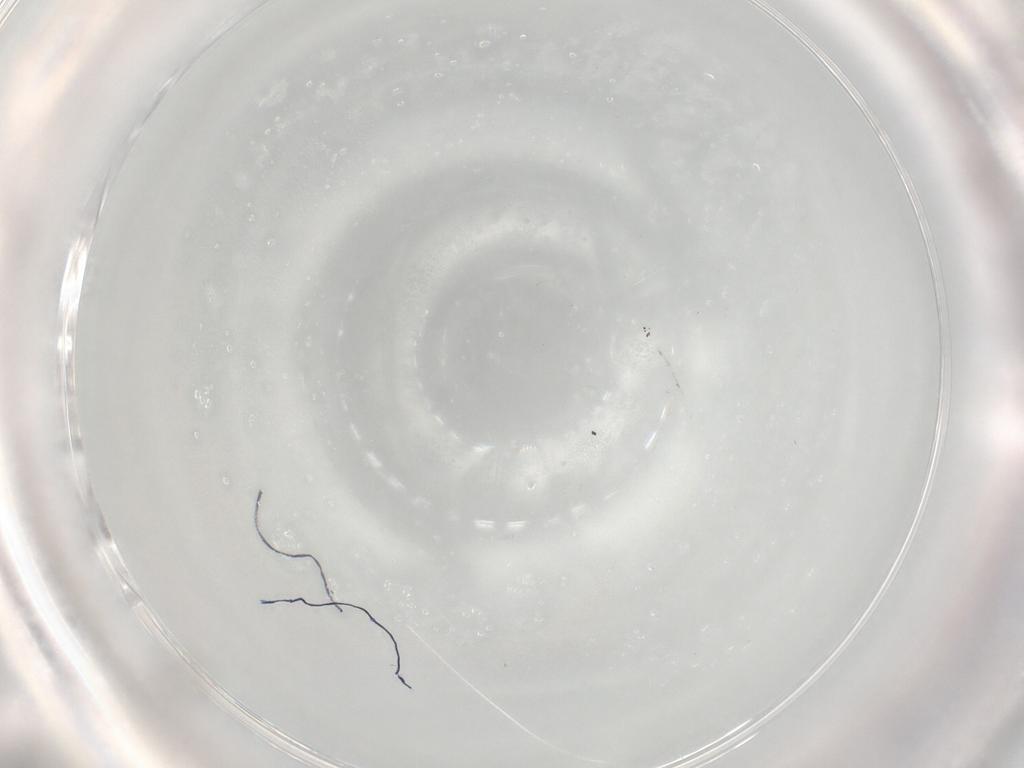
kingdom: Animalia
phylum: Arthropoda
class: Insecta
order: Diptera
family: Cecidomyiidae
